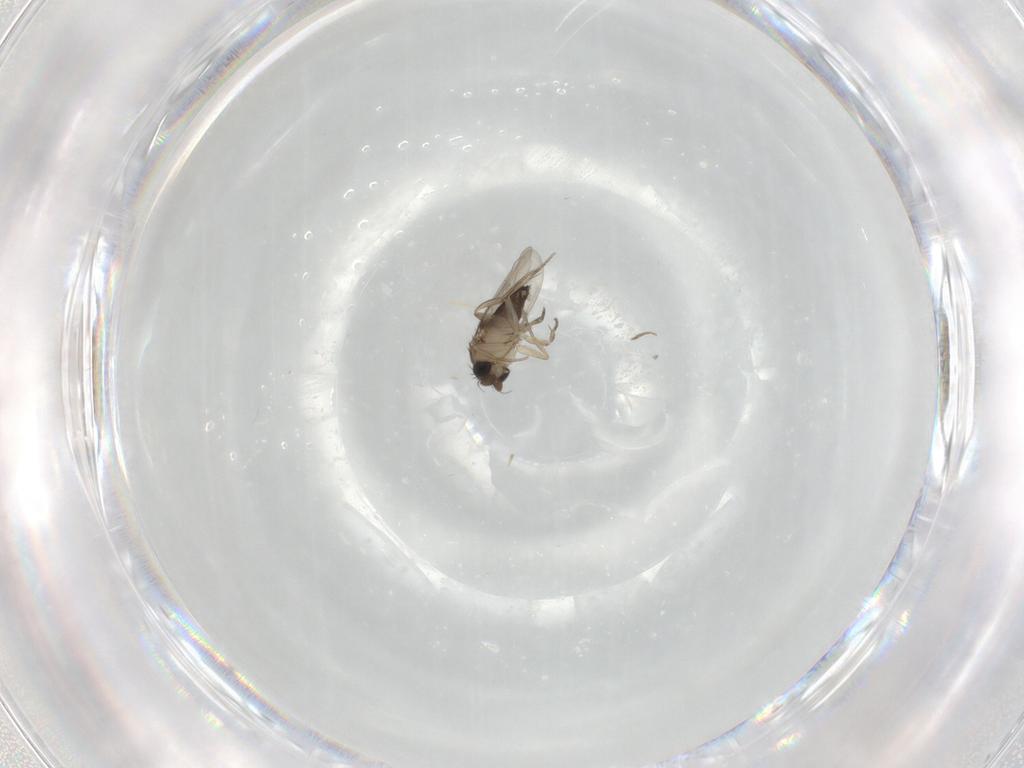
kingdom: Animalia
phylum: Arthropoda
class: Insecta
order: Diptera
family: Phoridae
